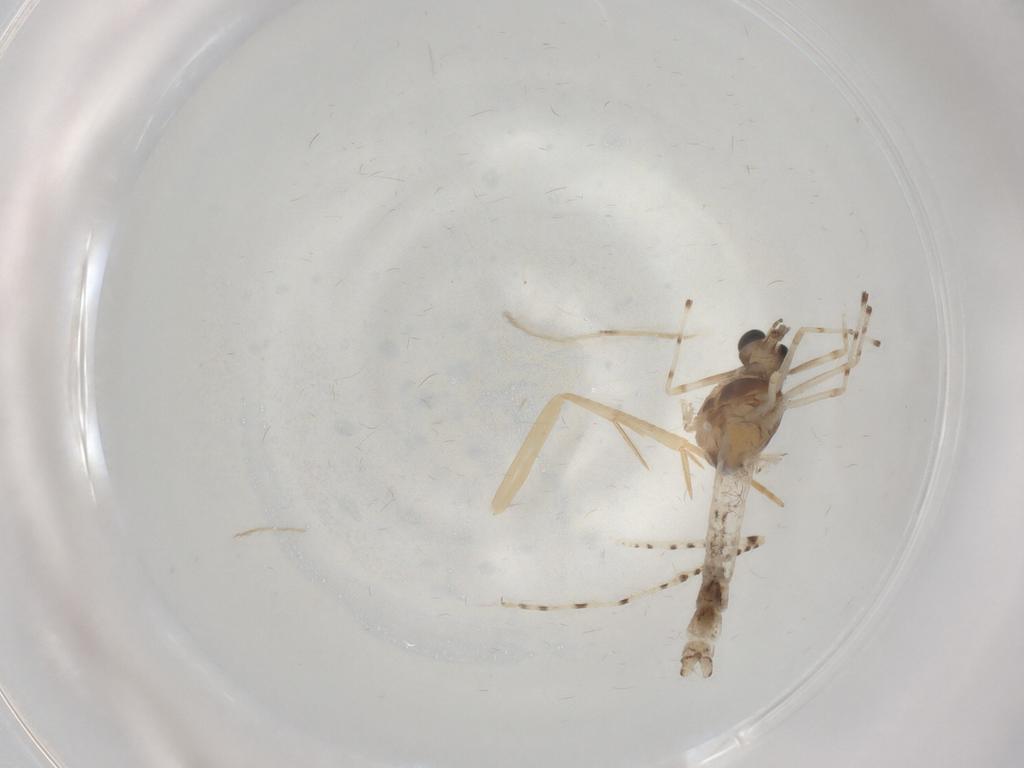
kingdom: Animalia
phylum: Arthropoda
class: Insecta
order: Diptera
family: Chironomidae
